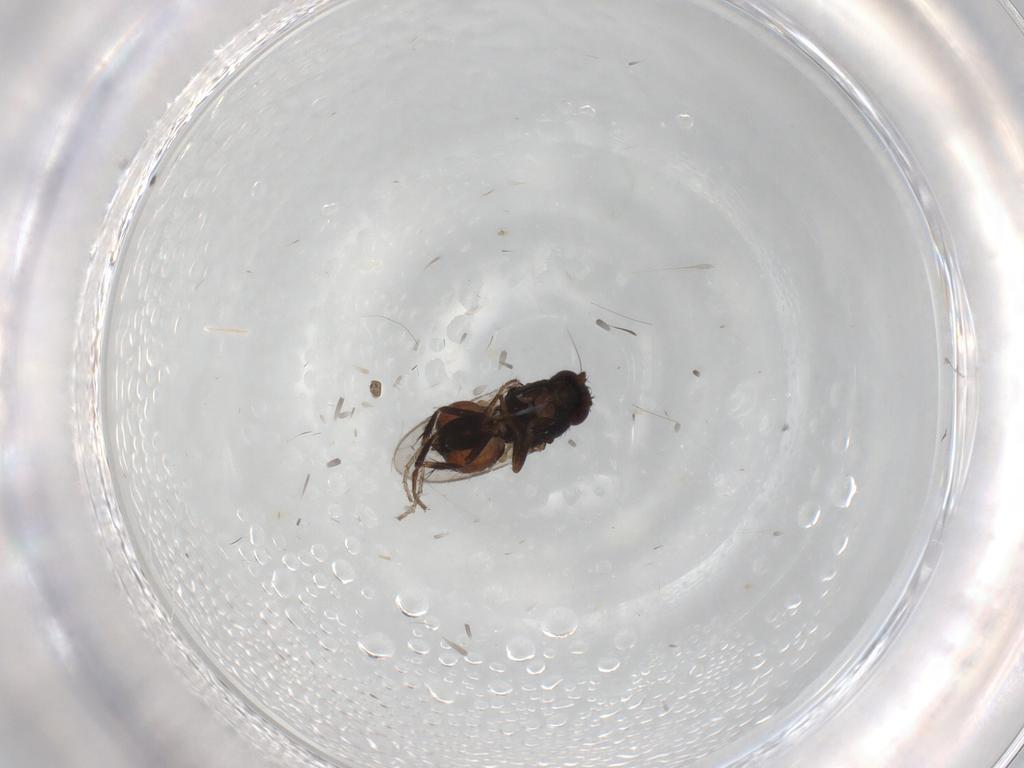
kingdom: Animalia
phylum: Arthropoda
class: Insecta
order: Diptera
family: Sphaeroceridae
